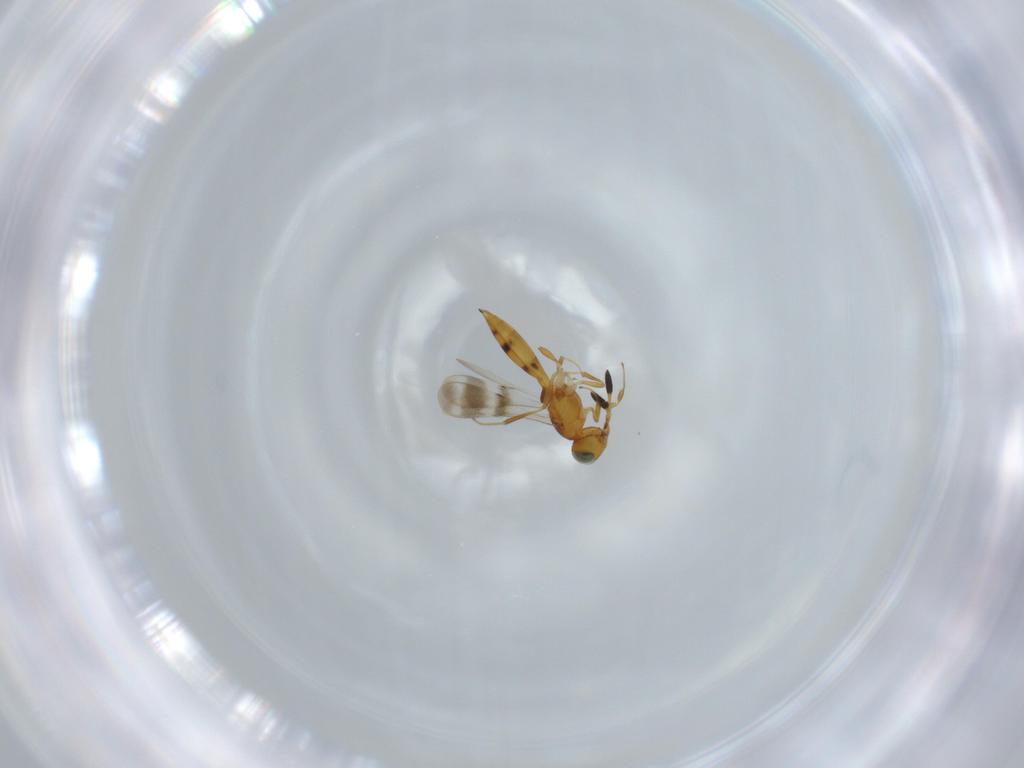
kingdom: Animalia
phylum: Arthropoda
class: Insecta
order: Hymenoptera
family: Scelionidae
